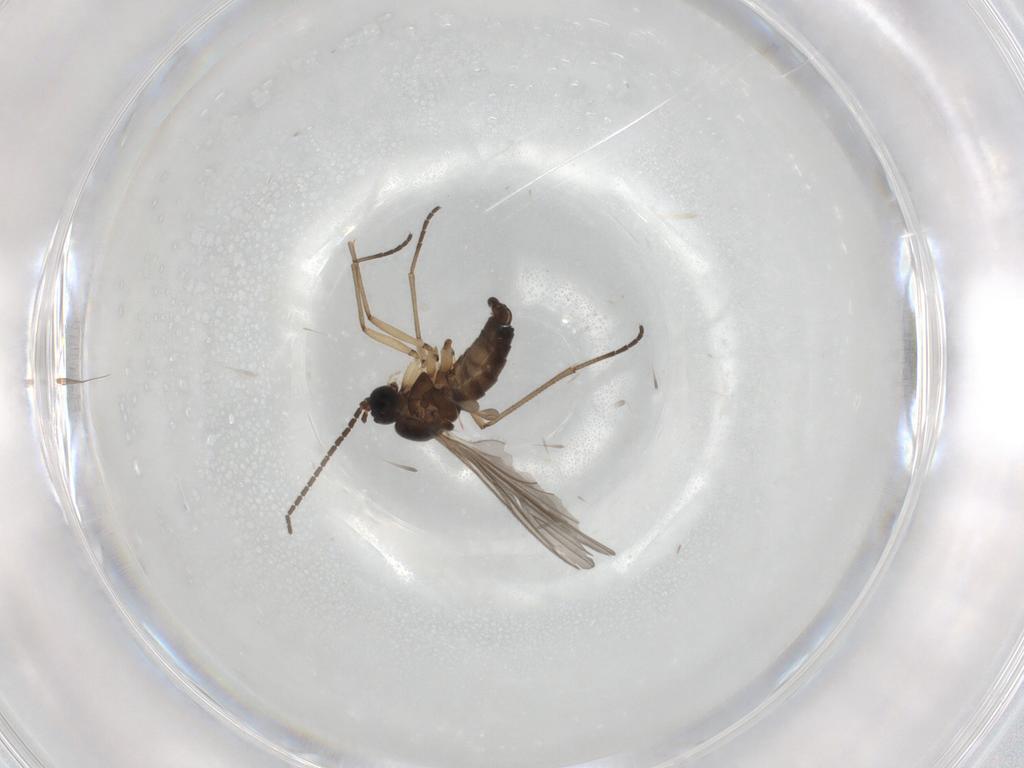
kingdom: Animalia
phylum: Arthropoda
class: Insecta
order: Diptera
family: Sciaridae
